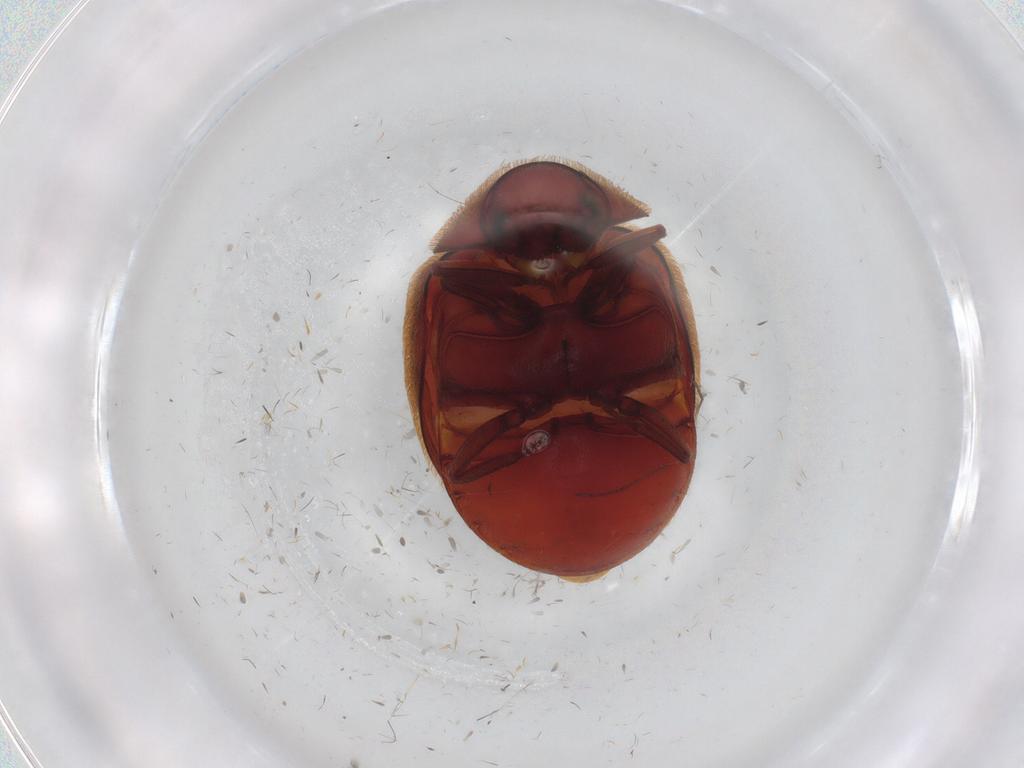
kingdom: Animalia
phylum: Arthropoda
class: Insecta
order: Coleoptera
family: Ptinidae
